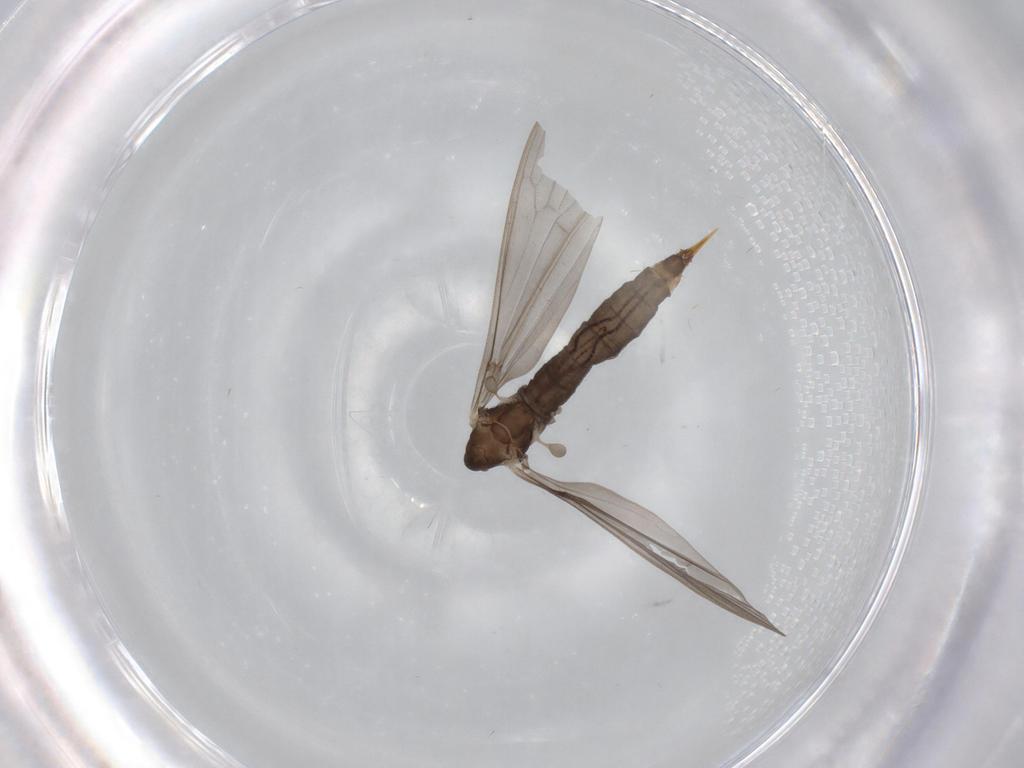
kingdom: Animalia
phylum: Arthropoda
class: Insecta
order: Diptera
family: Limoniidae
